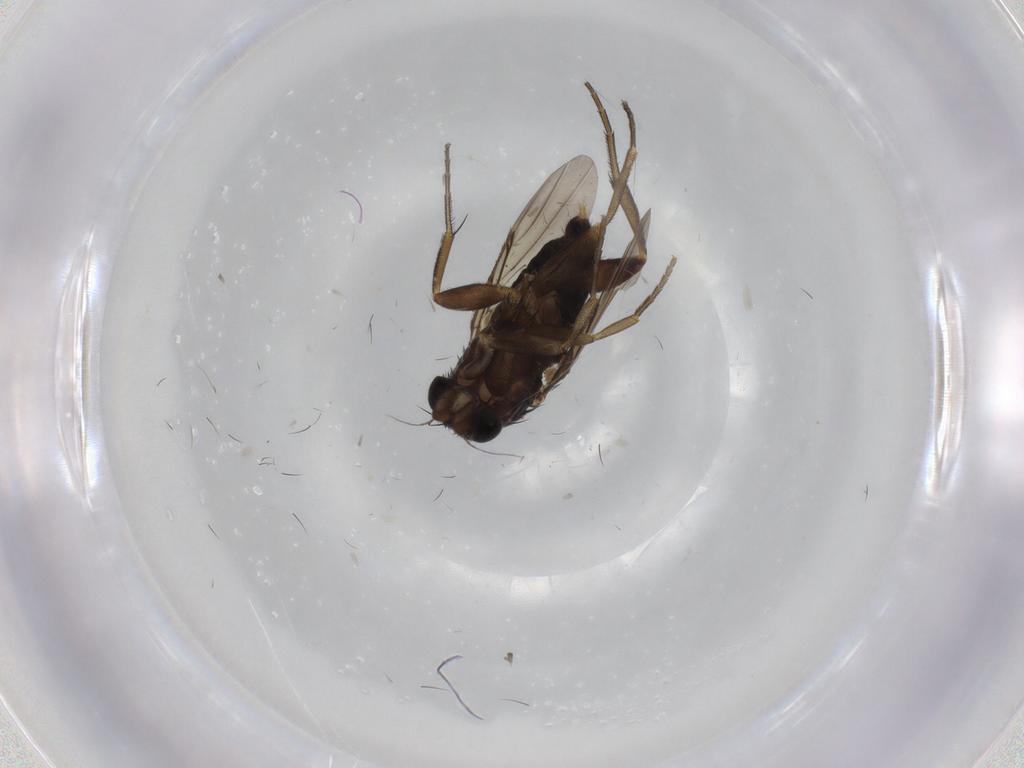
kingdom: Animalia
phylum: Arthropoda
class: Insecta
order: Diptera
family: Phoridae
